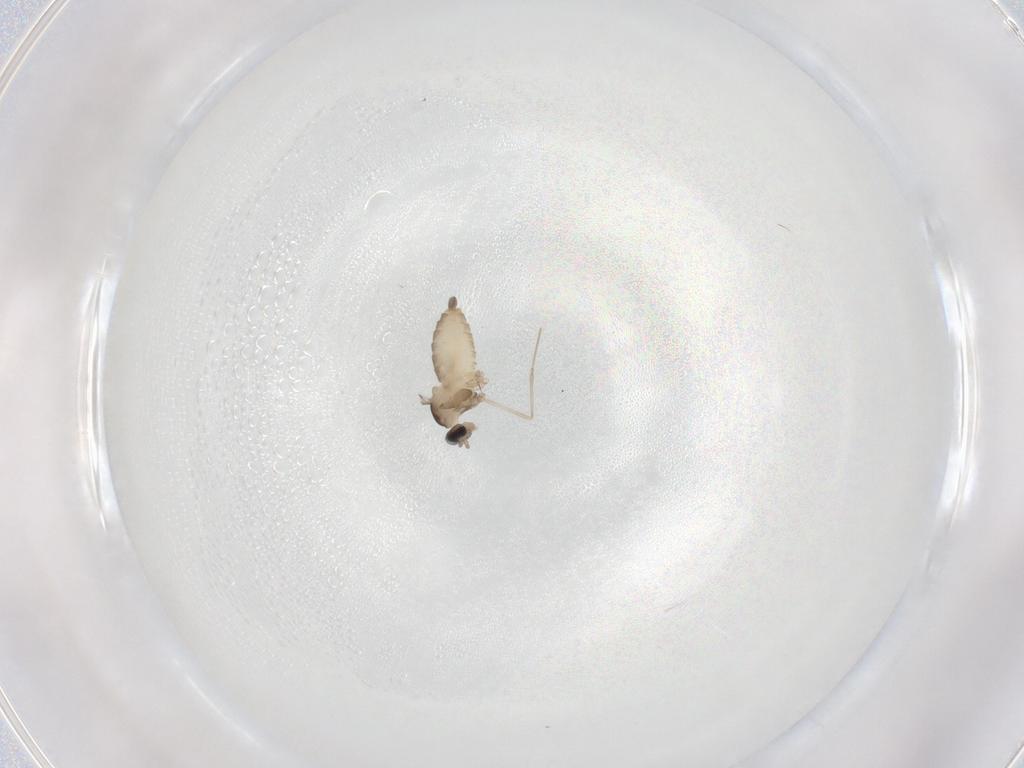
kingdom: Animalia
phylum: Arthropoda
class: Insecta
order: Diptera
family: Cecidomyiidae
